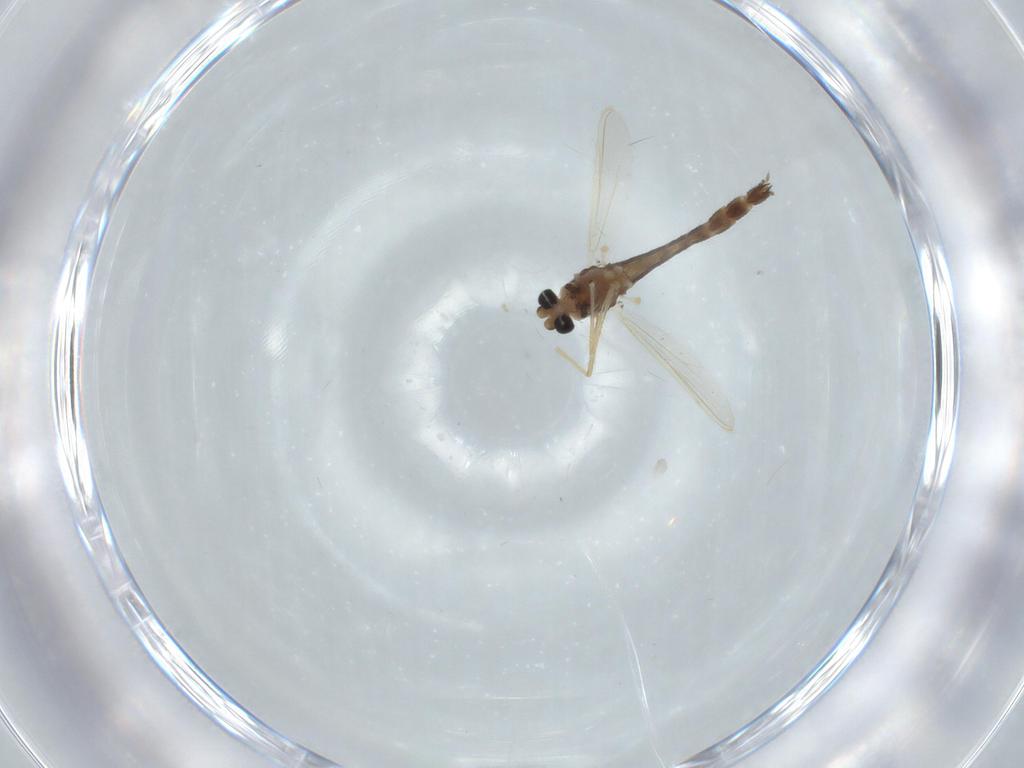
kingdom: Animalia
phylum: Arthropoda
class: Insecta
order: Diptera
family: Chironomidae
